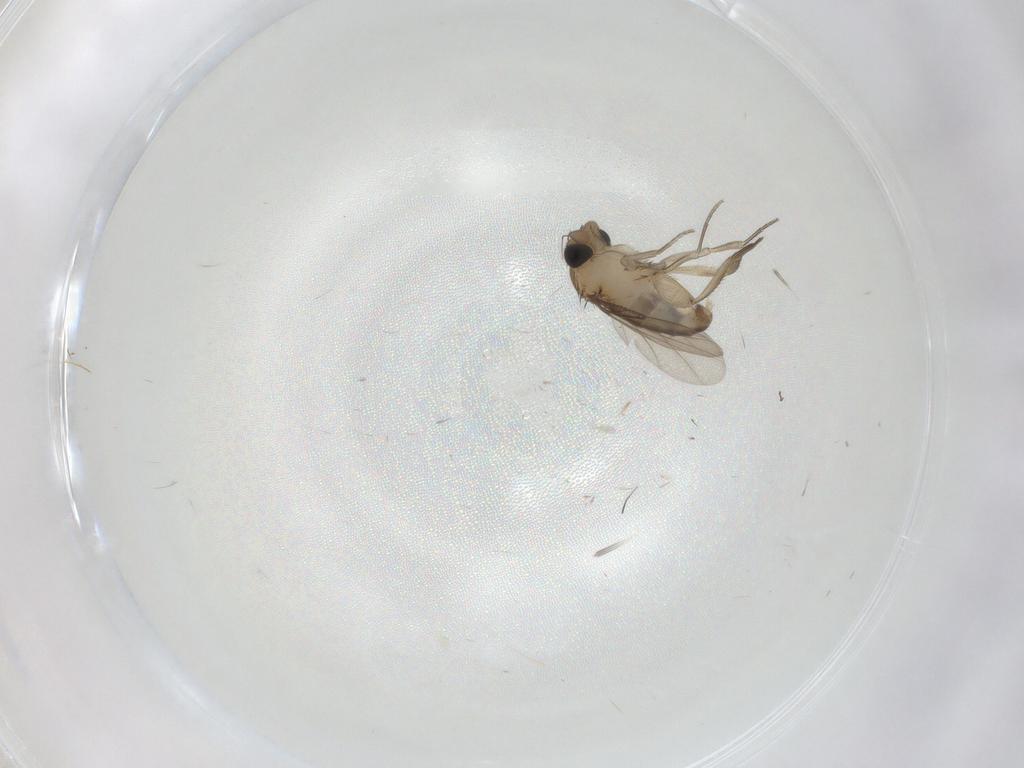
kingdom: Animalia
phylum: Arthropoda
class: Insecta
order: Diptera
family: Phoridae
